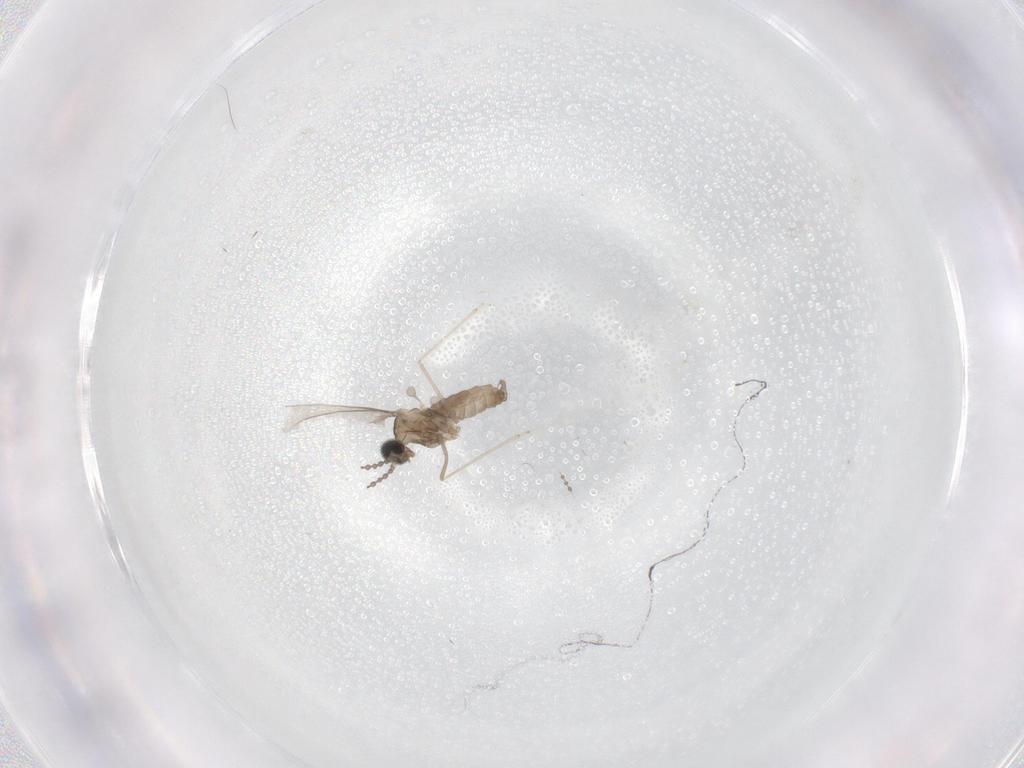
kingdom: Animalia
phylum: Arthropoda
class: Insecta
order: Diptera
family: Cecidomyiidae
